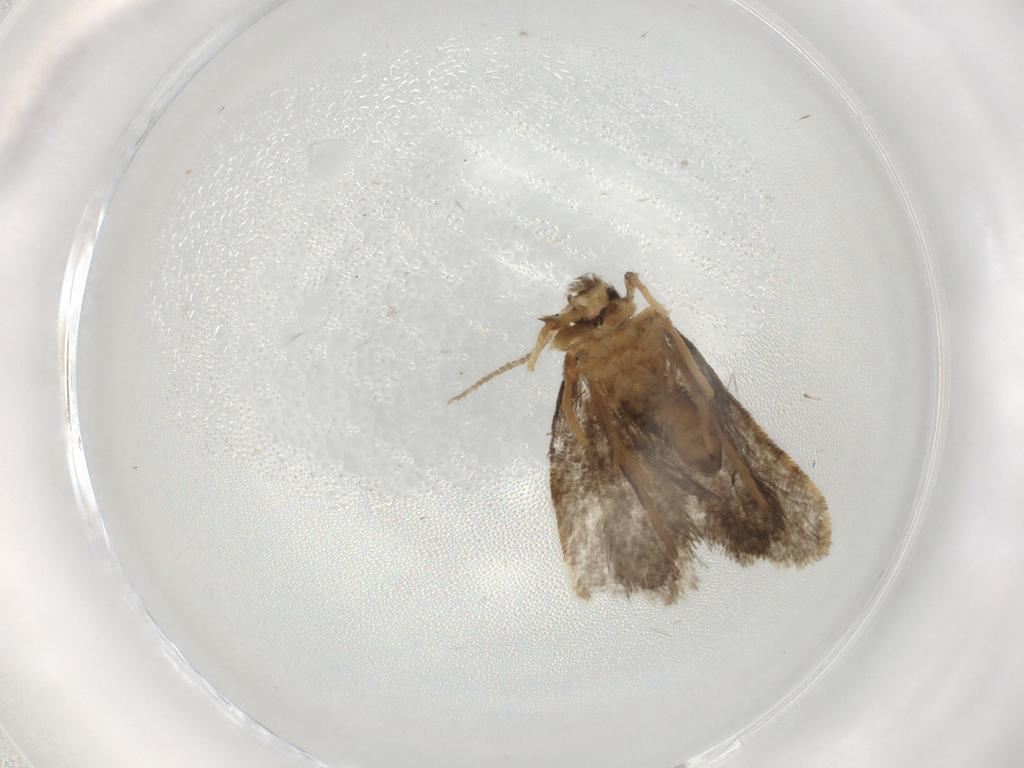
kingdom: Animalia
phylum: Arthropoda
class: Insecta
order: Lepidoptera
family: Psychidae
